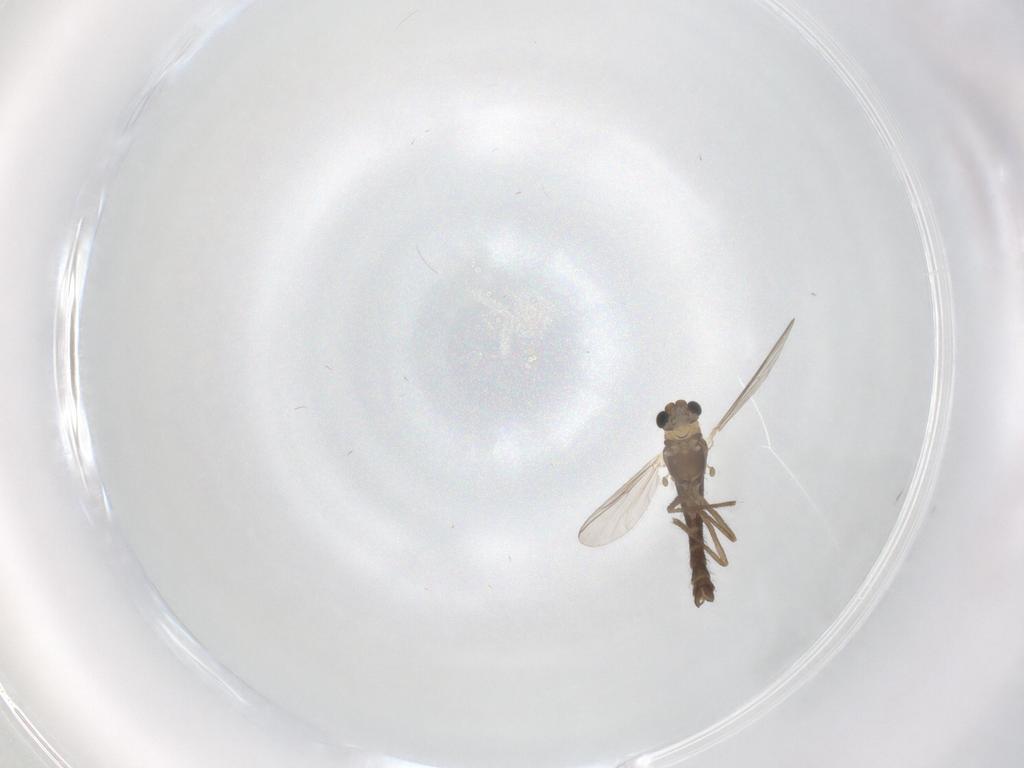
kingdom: Animalia
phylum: Arthropoda
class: Insecta
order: Diptera
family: Chironomidae
